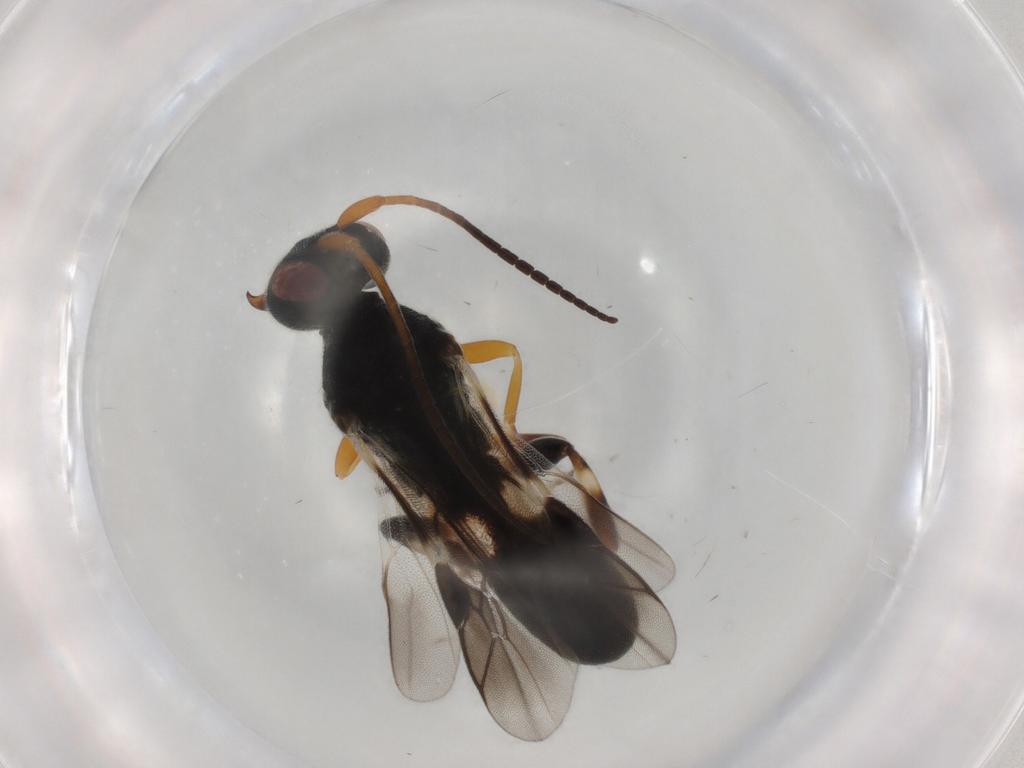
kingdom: Animalia
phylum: Arthropoda
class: Insecta
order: Hymenoptera
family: Braconidae
